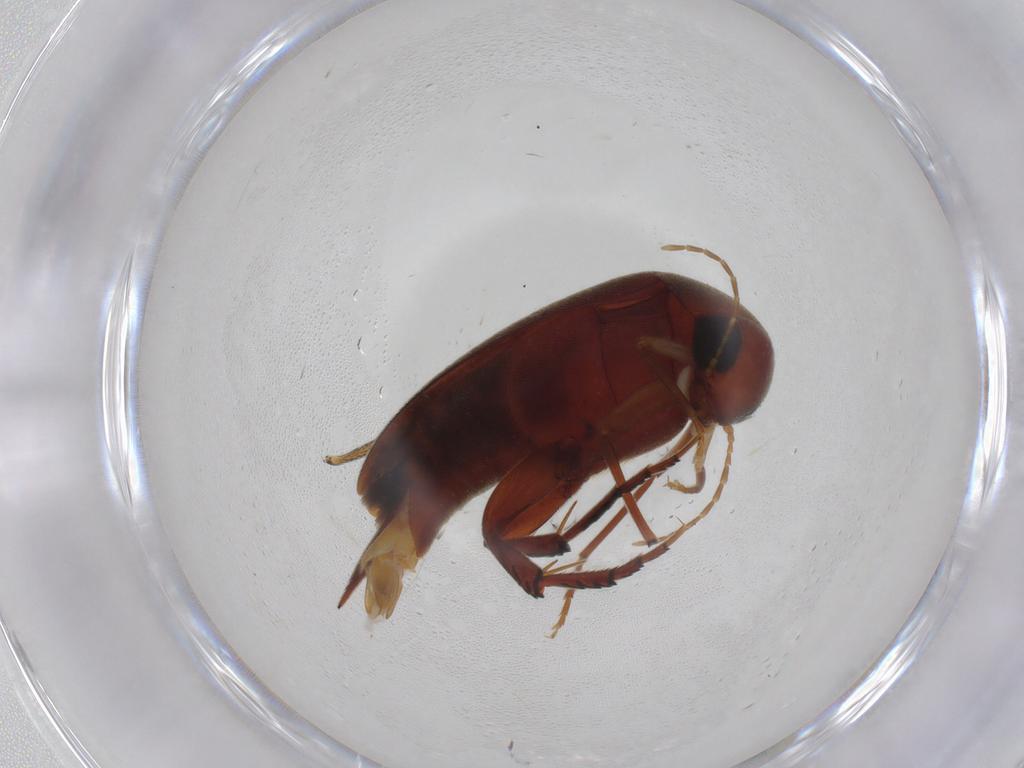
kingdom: Animalia
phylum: Arthropoda
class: Insecta
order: Coleoptera
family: Mordellidae
